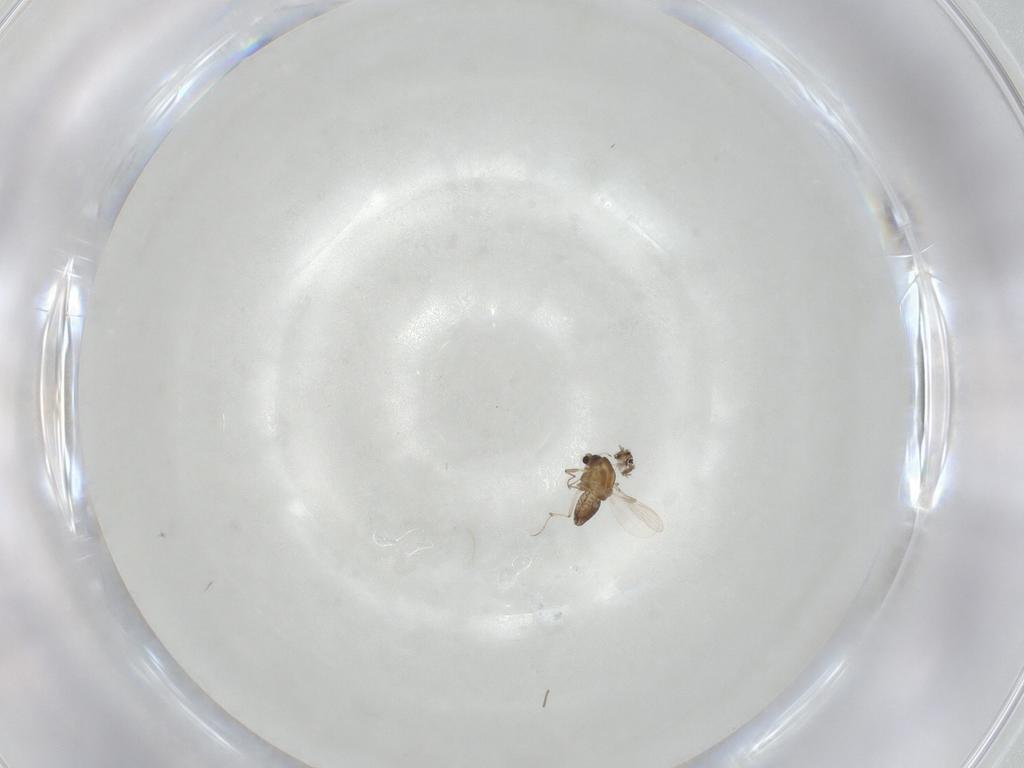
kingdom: Animalia
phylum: Arthropoda
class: Insecta
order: Diptera
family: Chironomidae
